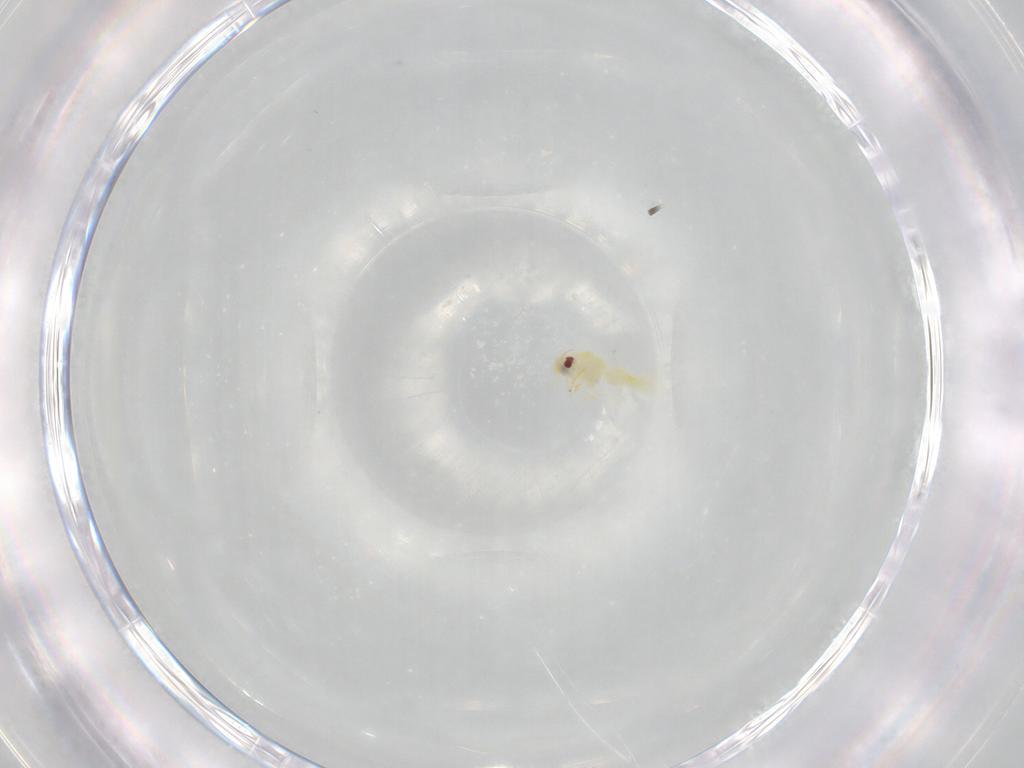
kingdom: Animalia
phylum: Arthropoda
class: Insecta
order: Hemiptera
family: Aleyrodidae
